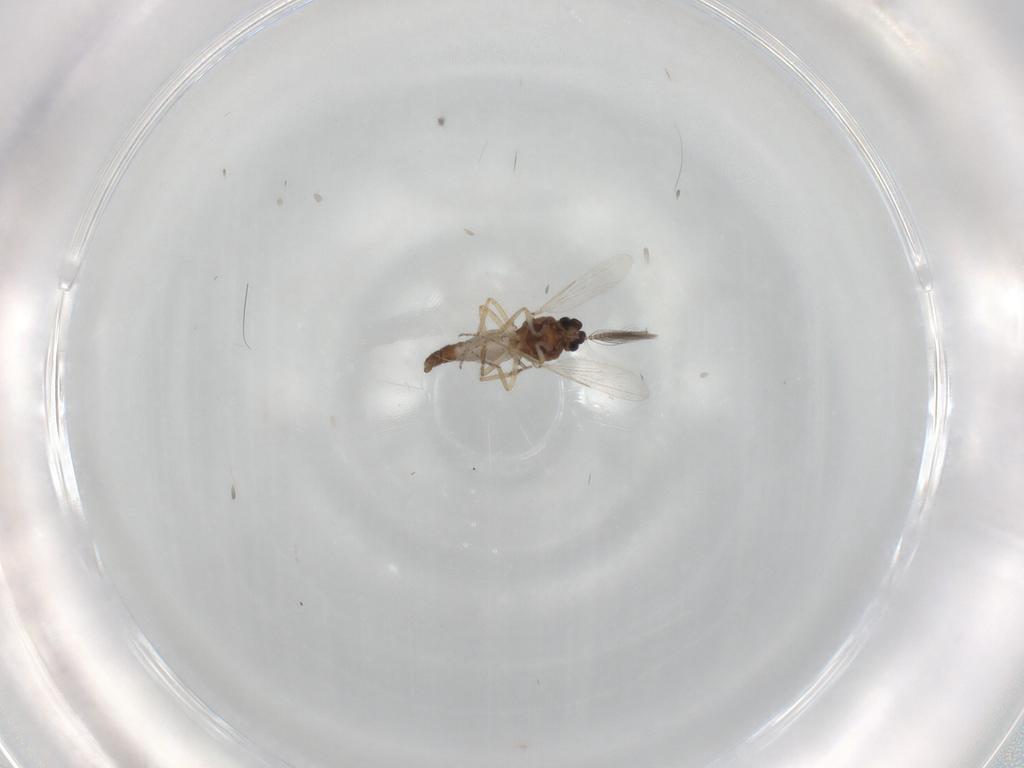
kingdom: Animalia
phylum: Arthropoda
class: Insecta
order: Diptera
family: Ceratopogonidae
